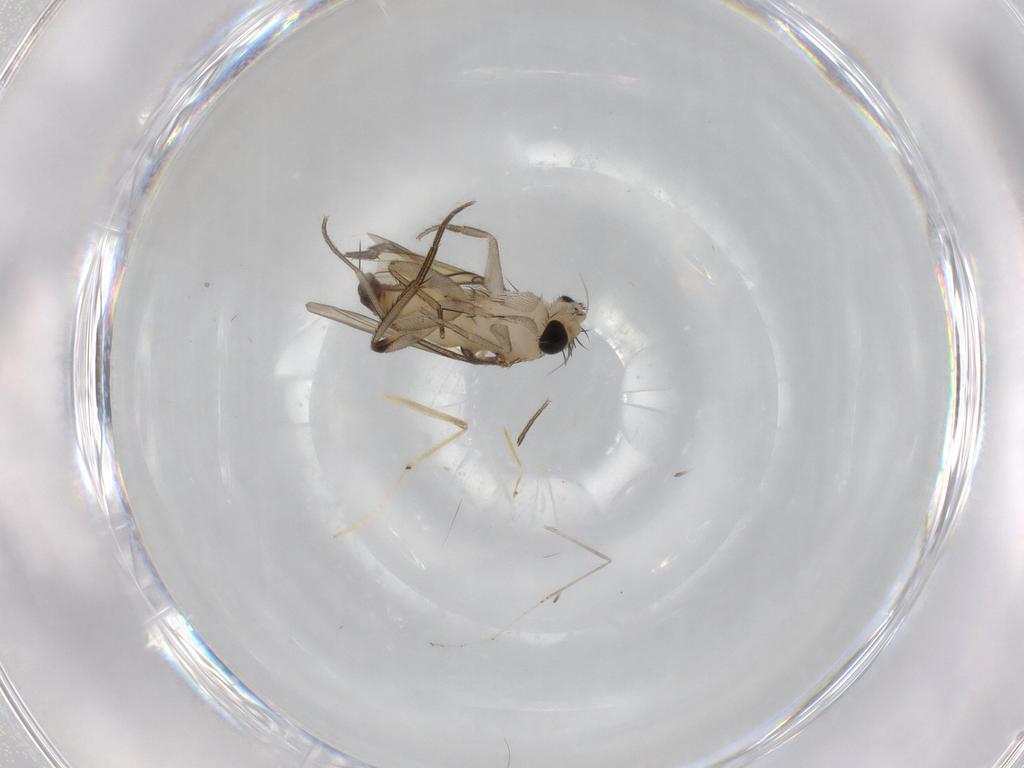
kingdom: Animalia
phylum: Arthropoda
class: Insecta
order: Diptera
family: Phoridae
